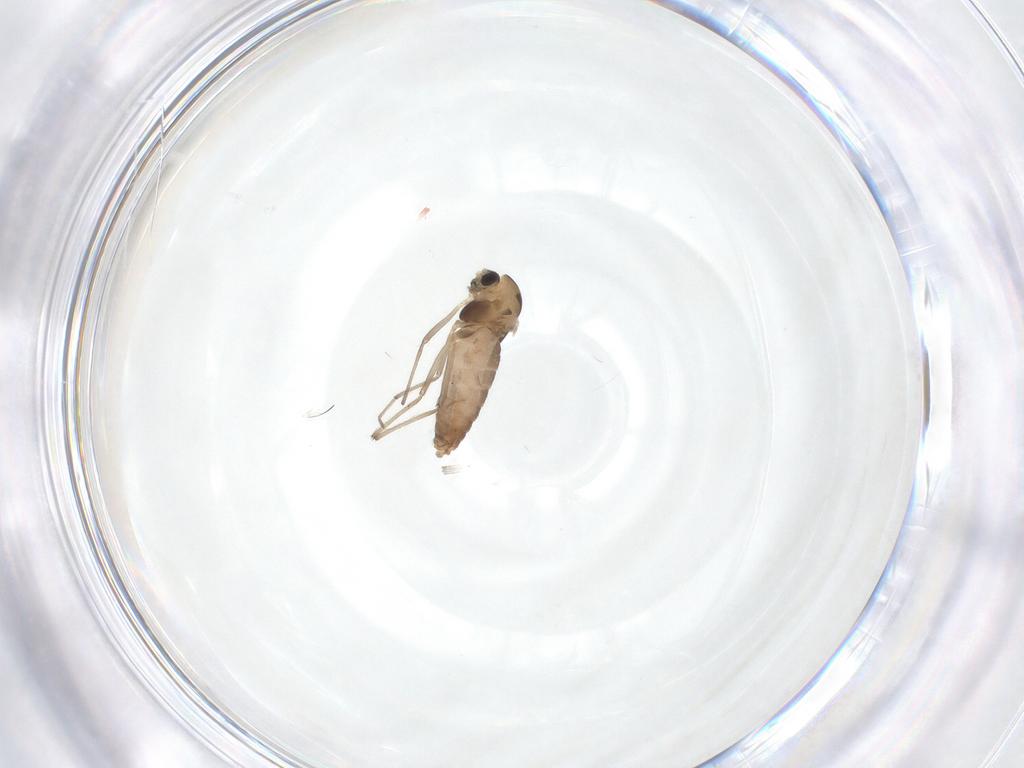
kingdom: Animalia
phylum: Arthropoda
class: Insecta
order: Diptera
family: Chironomidae
